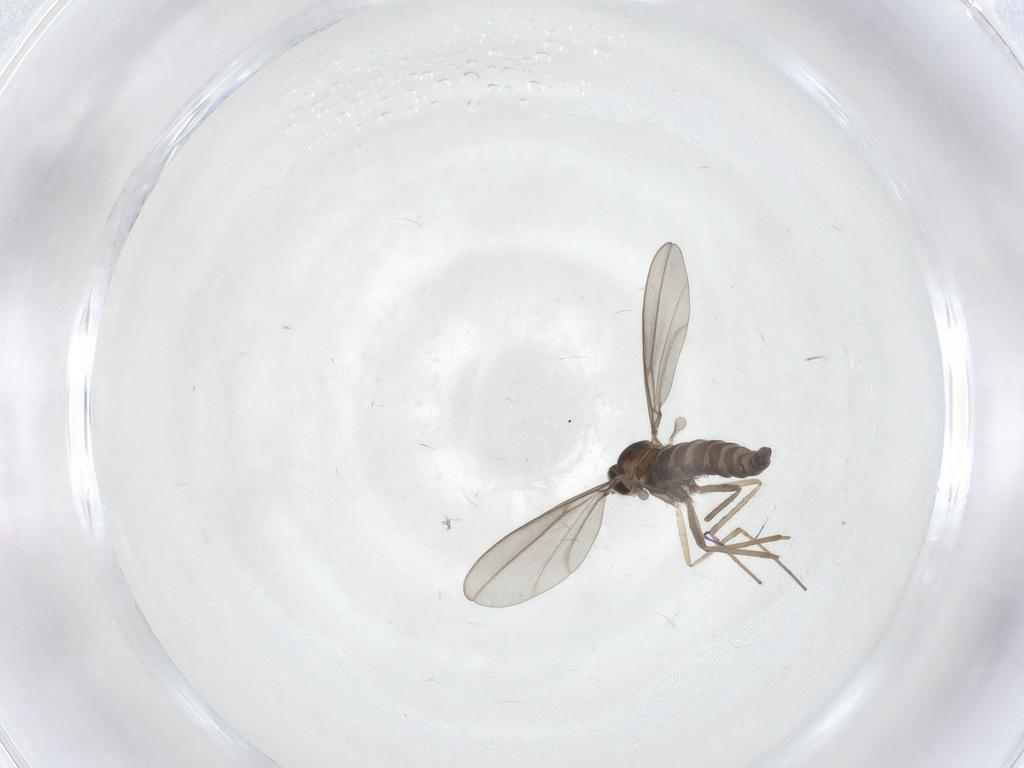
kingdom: Animalia
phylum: Arthropoda
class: Insecta
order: Diptera
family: Cecidomyiidae
